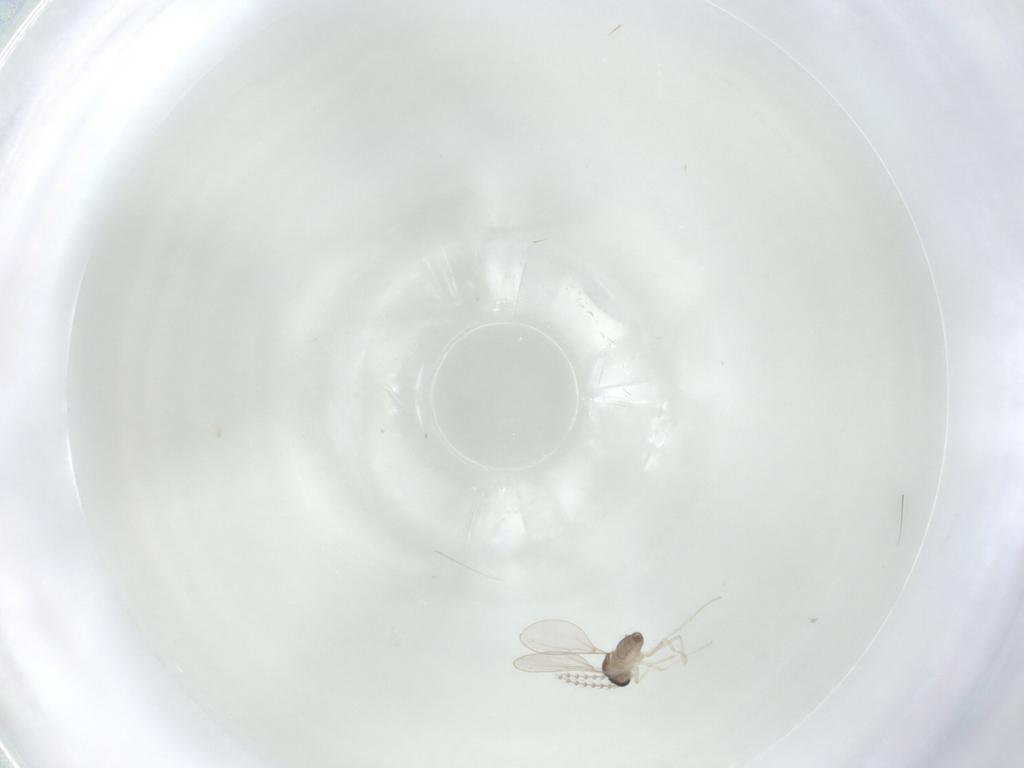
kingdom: Animalia
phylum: Arthropoda
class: Insecta
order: Diptera
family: Cecidomyiidae
